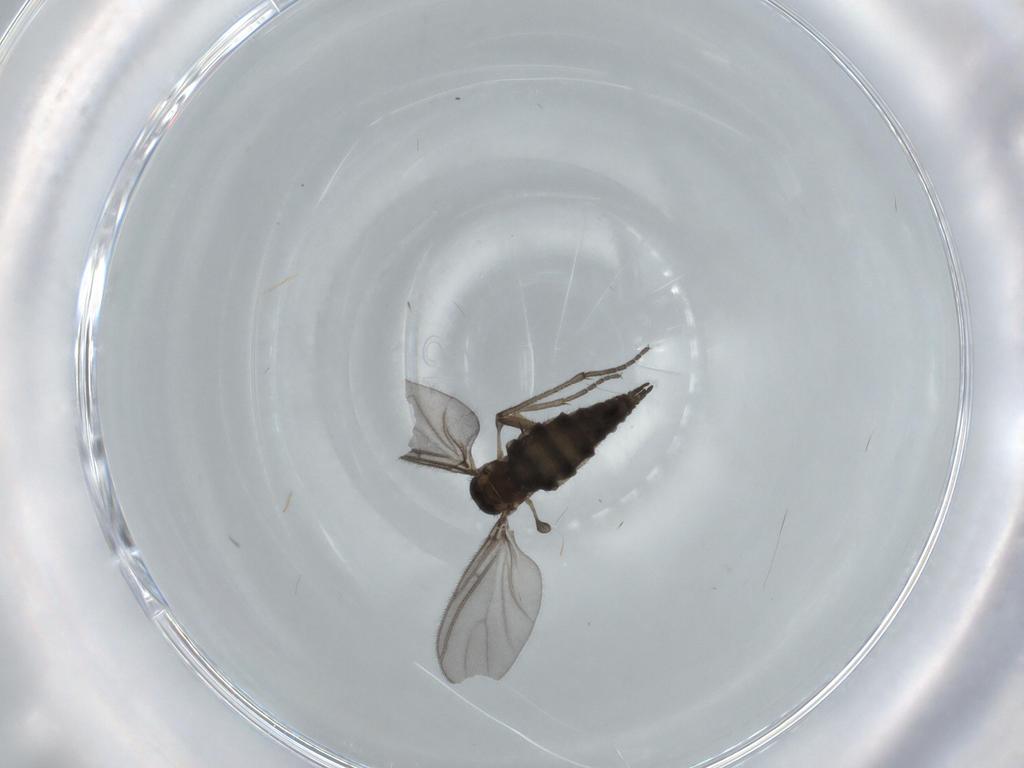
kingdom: Animalia
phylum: Arthropoda
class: Insecta
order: Diptera
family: Sciaridae
